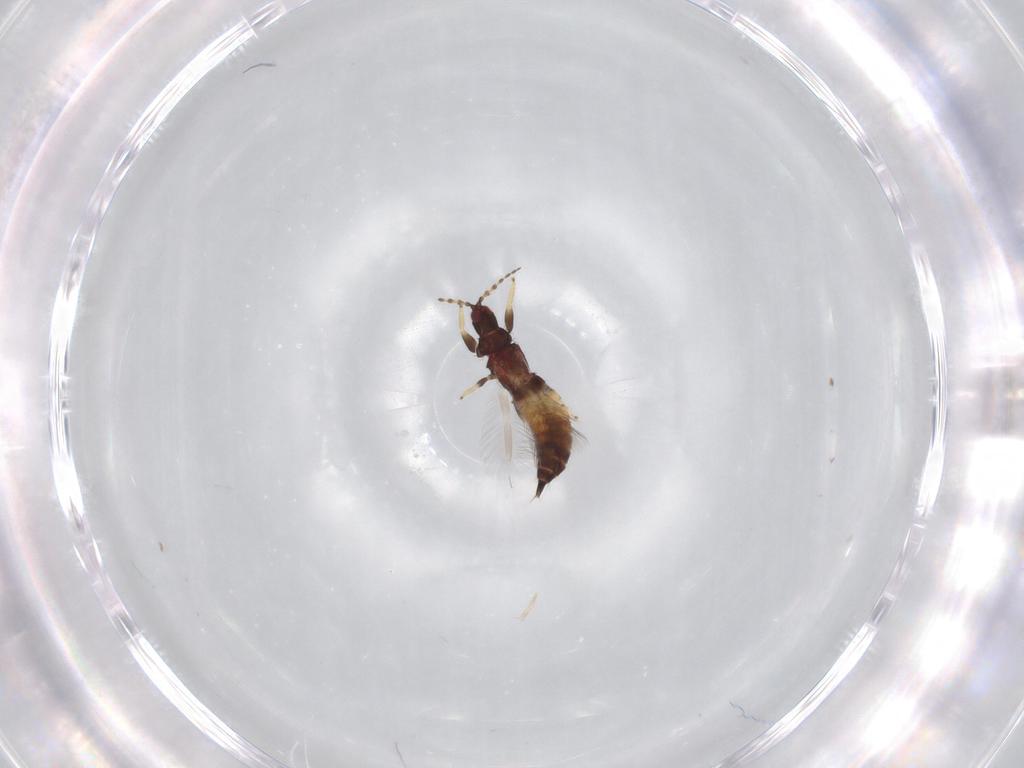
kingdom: Animalia
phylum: Arthropoda
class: Insecta
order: Thysanoptera
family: Phlaeothripidae
